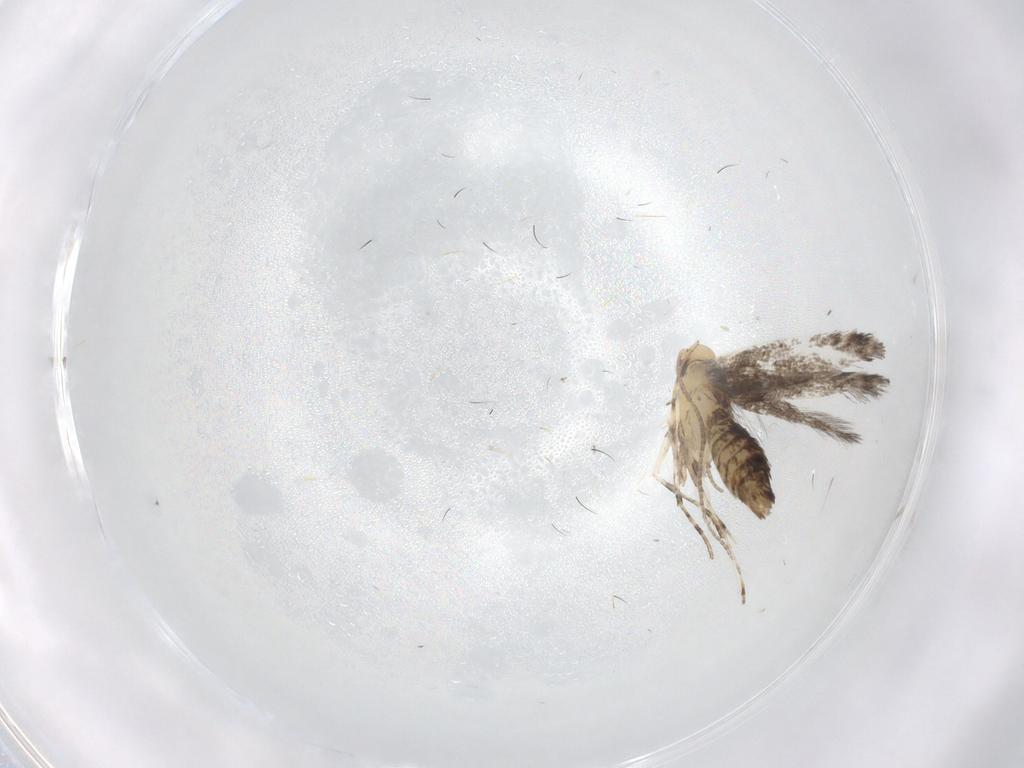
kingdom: Animalia
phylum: Arthropoda
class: Insecta
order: Lepidoptera
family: Gracillariidae
